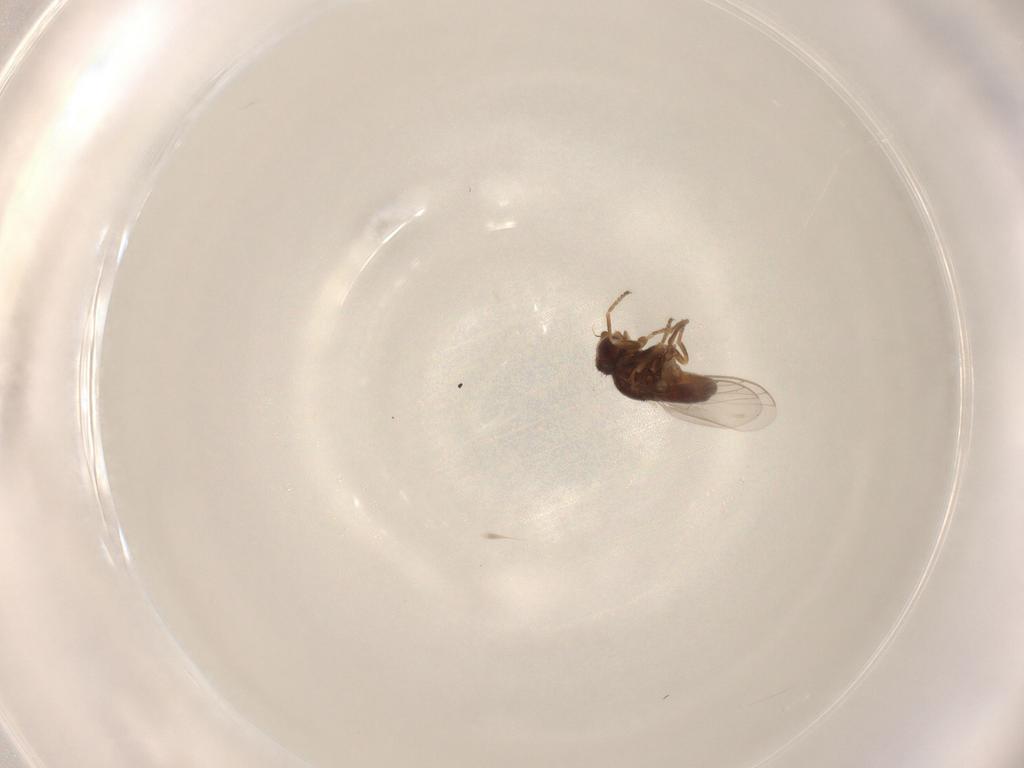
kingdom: Animalia
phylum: Arthropoda
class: Insecta
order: Diptera
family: Chloropidae
